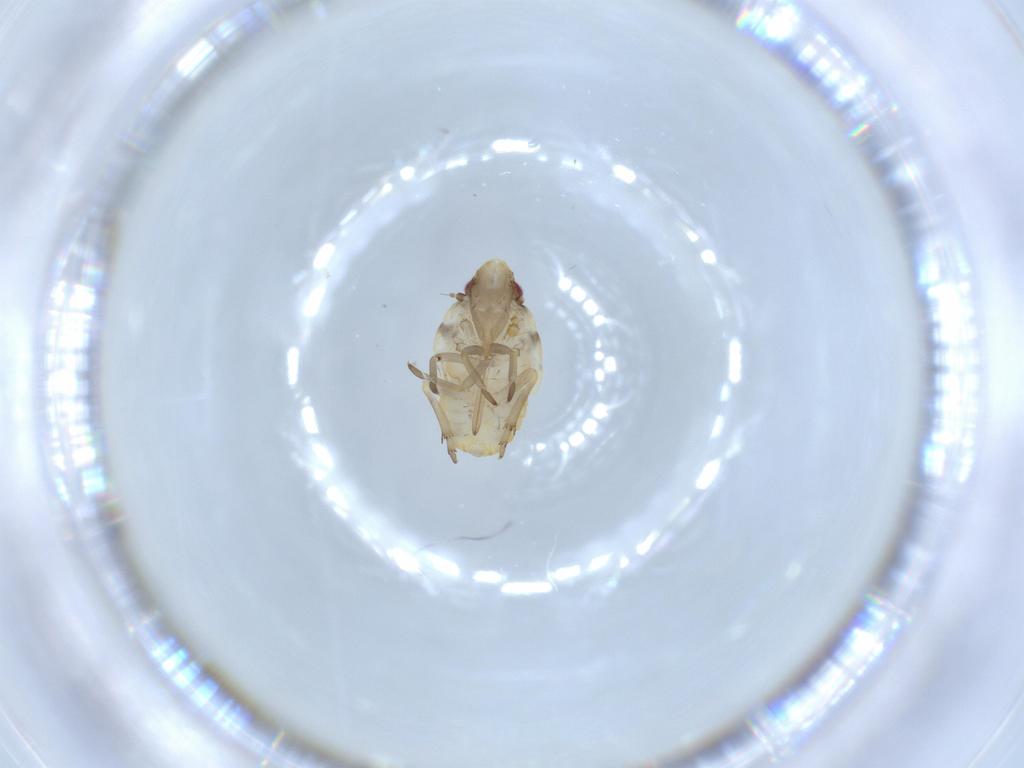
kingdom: Animalia
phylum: Arthropoda
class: Insecta
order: Hemiptera
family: Flatidae
